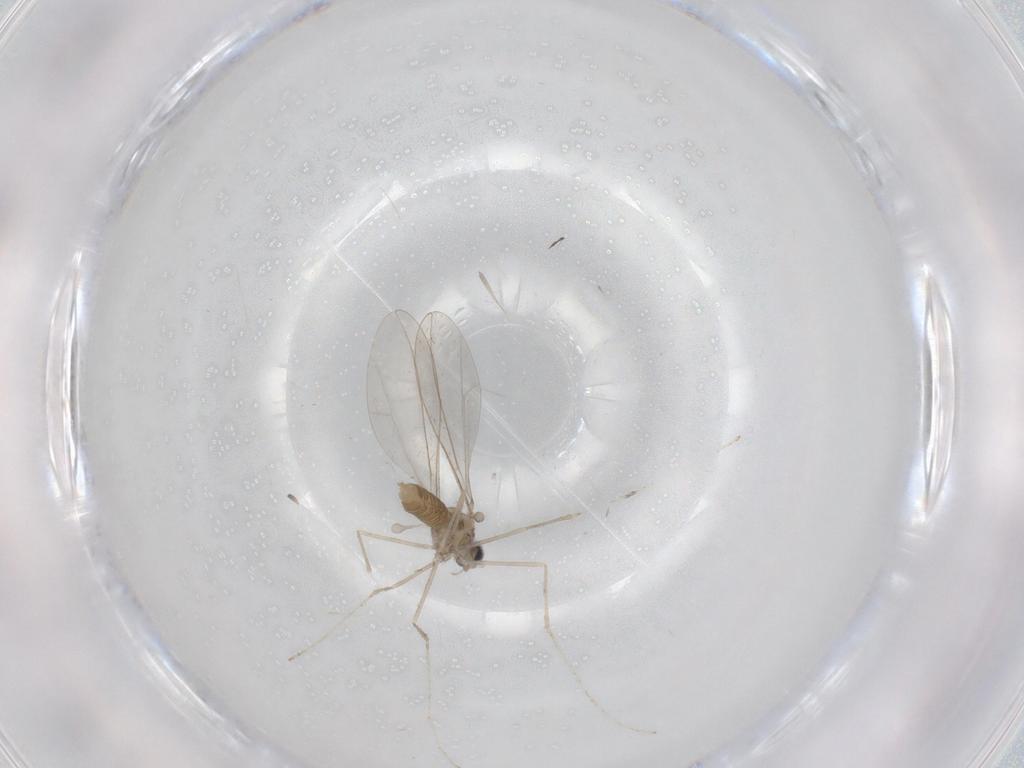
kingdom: Animalia
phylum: Arthropoda
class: Insecta
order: Diptera
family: Cecidomyiidae
